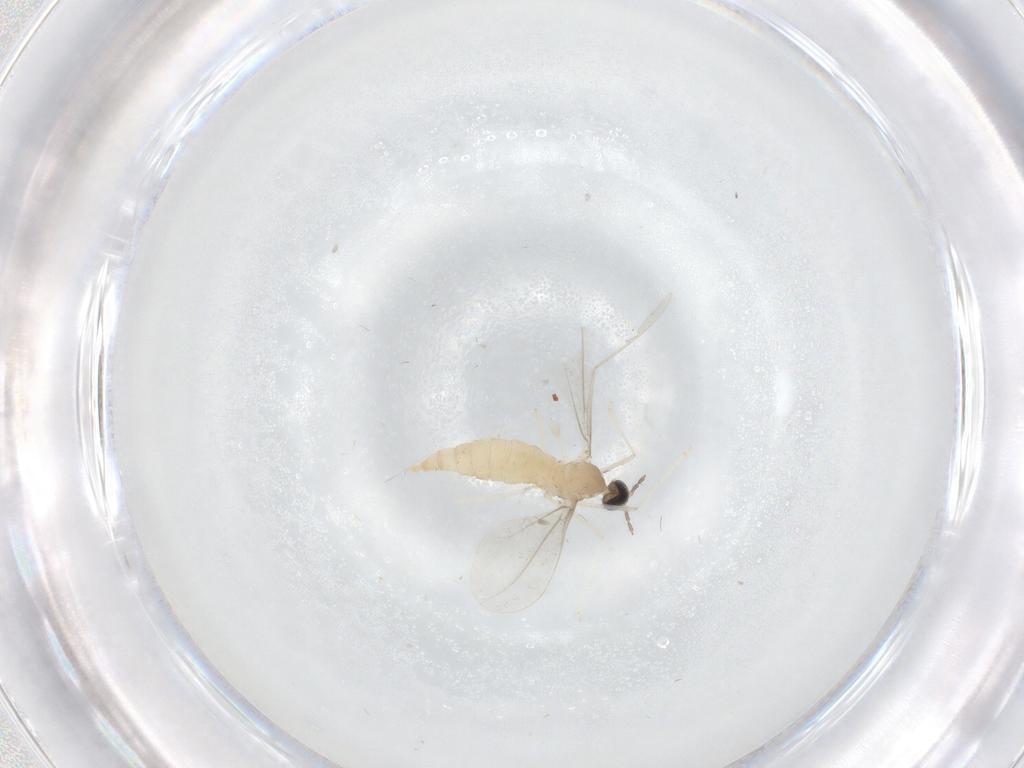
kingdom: Animalia
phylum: Arthropoda
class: Insecta
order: Diptera
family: Cecidomyiidae
